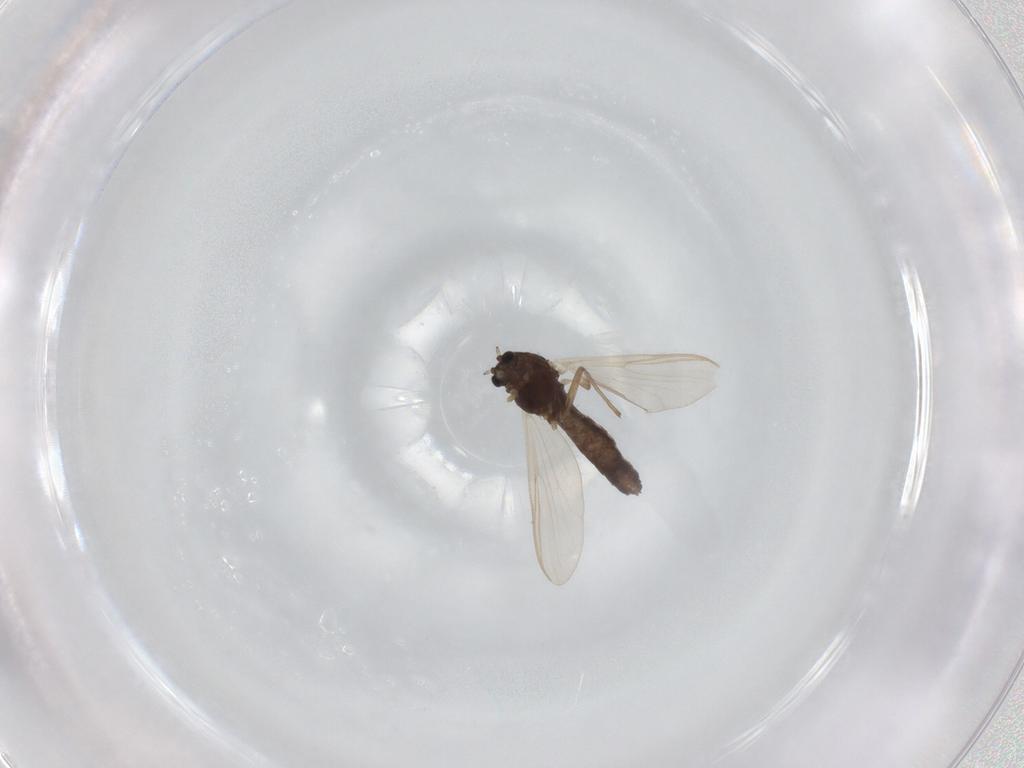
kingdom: Animalia
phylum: Arthropoda
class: Insecta
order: Diptera
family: Chironomidae
